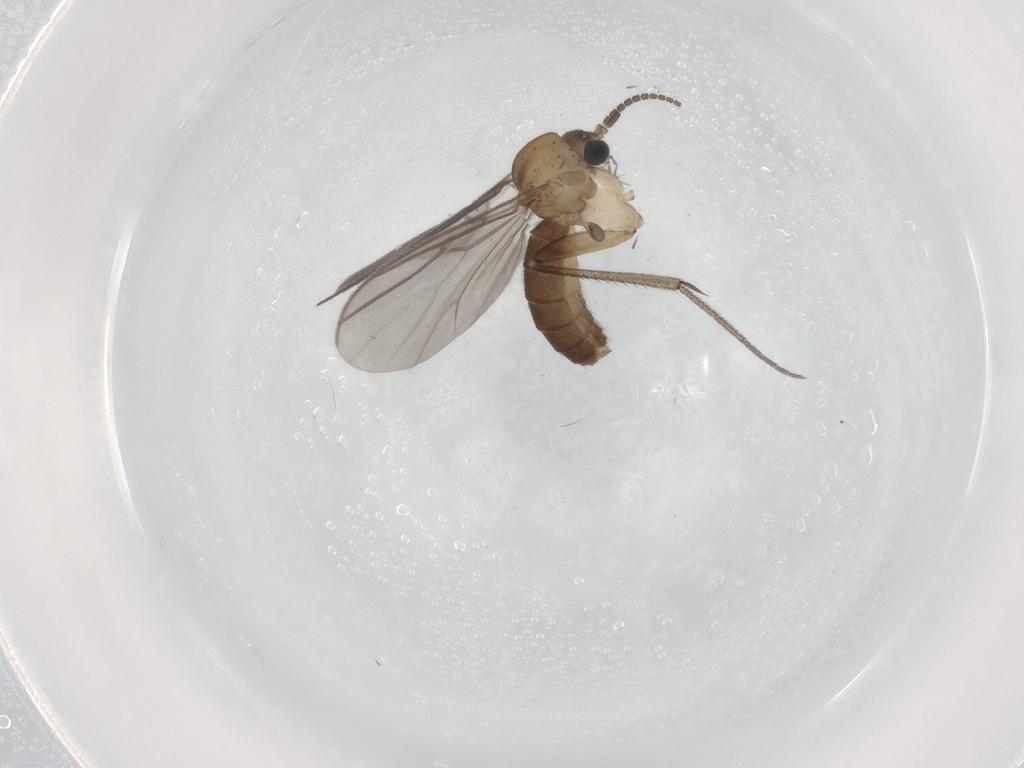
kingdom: Animalia
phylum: Arthropoda
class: Insecta
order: Diptera
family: Mycetophilidae
